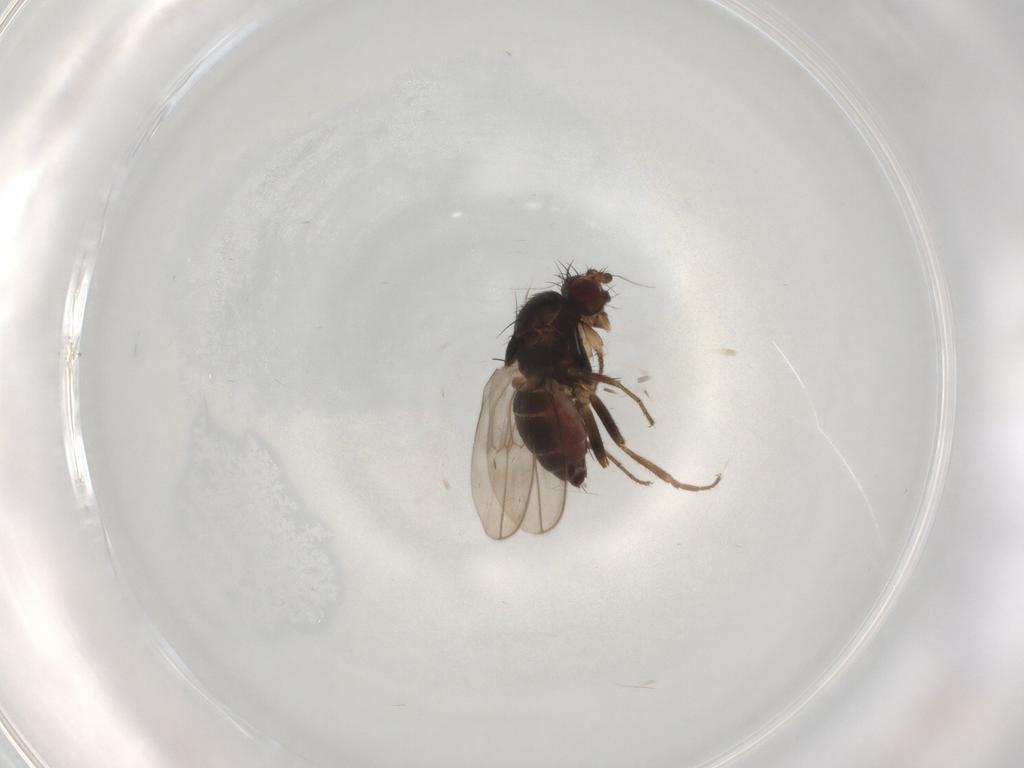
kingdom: Animalia
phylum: Arthropoda
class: Insecta
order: Diptera
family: Sphaeroceridae
